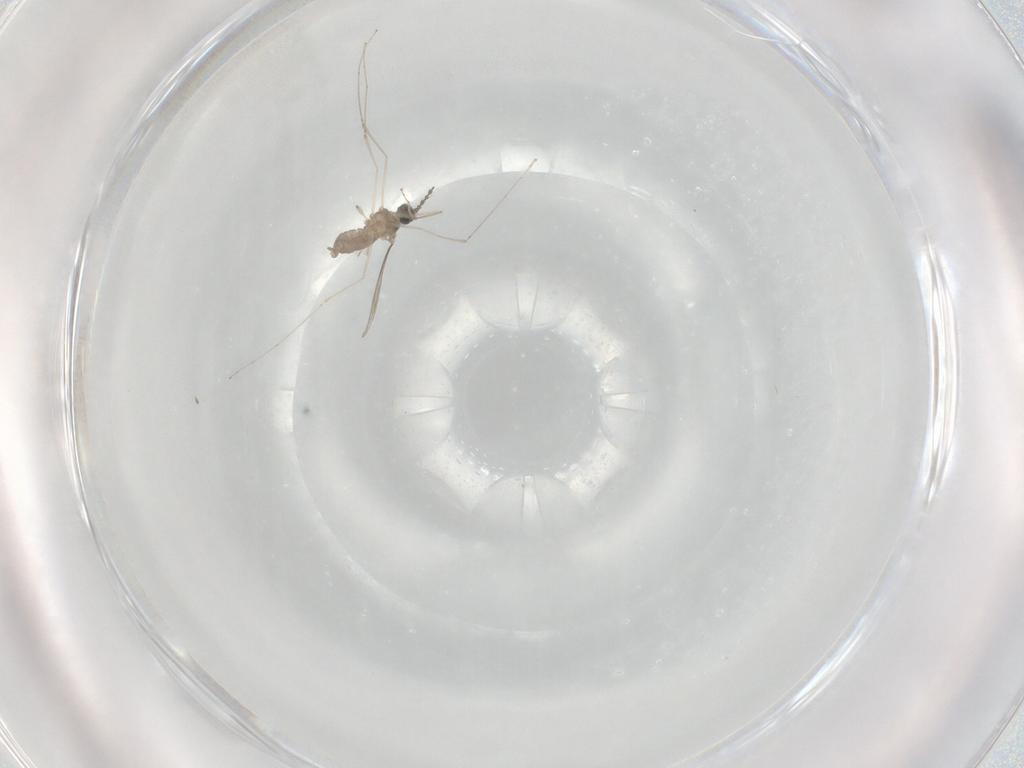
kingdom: Animalia
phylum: Arthropoda
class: Insecta
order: Diptera
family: Cecidomyiidae
